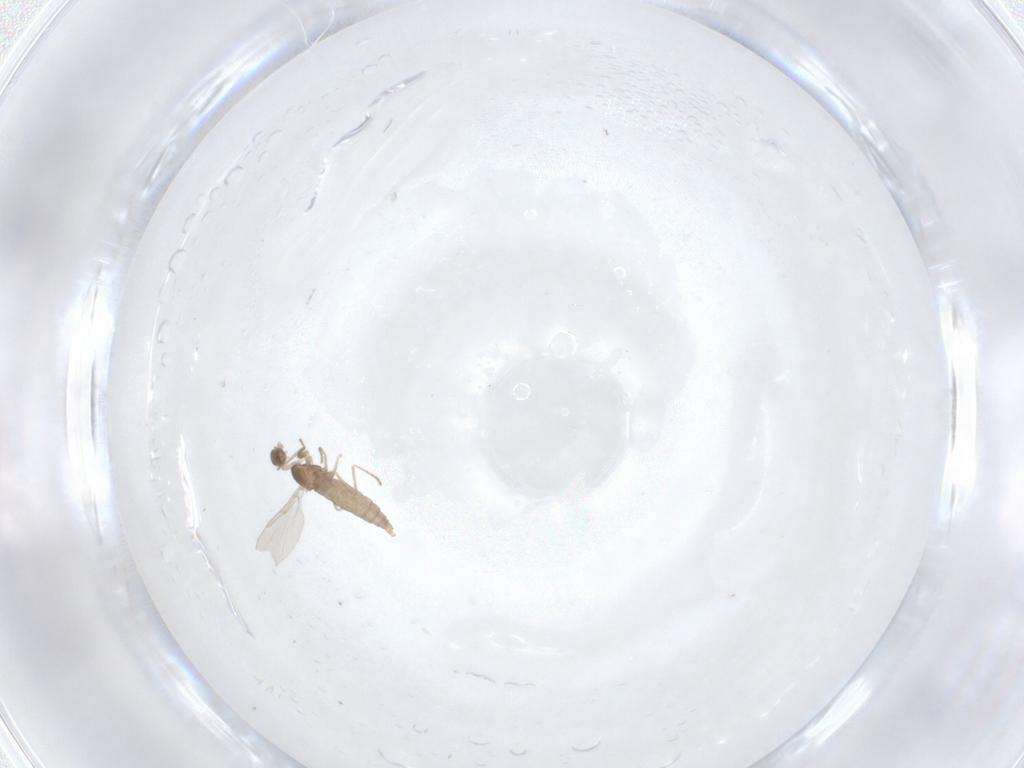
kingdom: Animalia
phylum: Arthropoda
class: Insecta
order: Diptera
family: Cecidomyiidae
